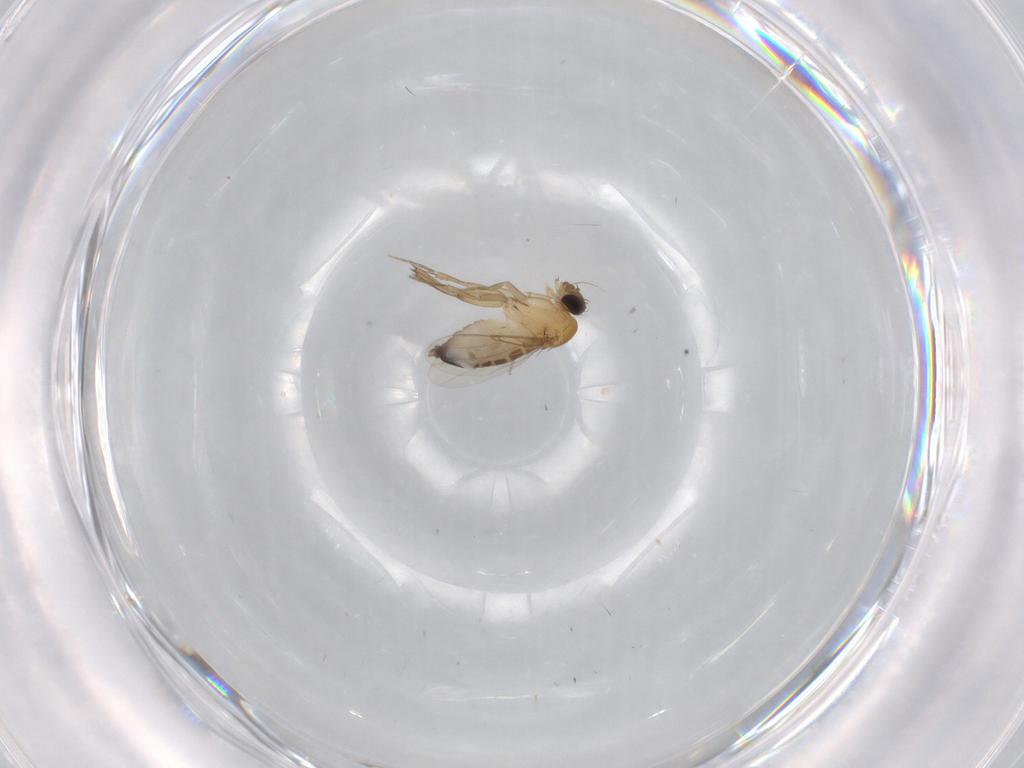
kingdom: Animalia
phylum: Arthropoda
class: Insecta
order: Diptera
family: Phoridae
